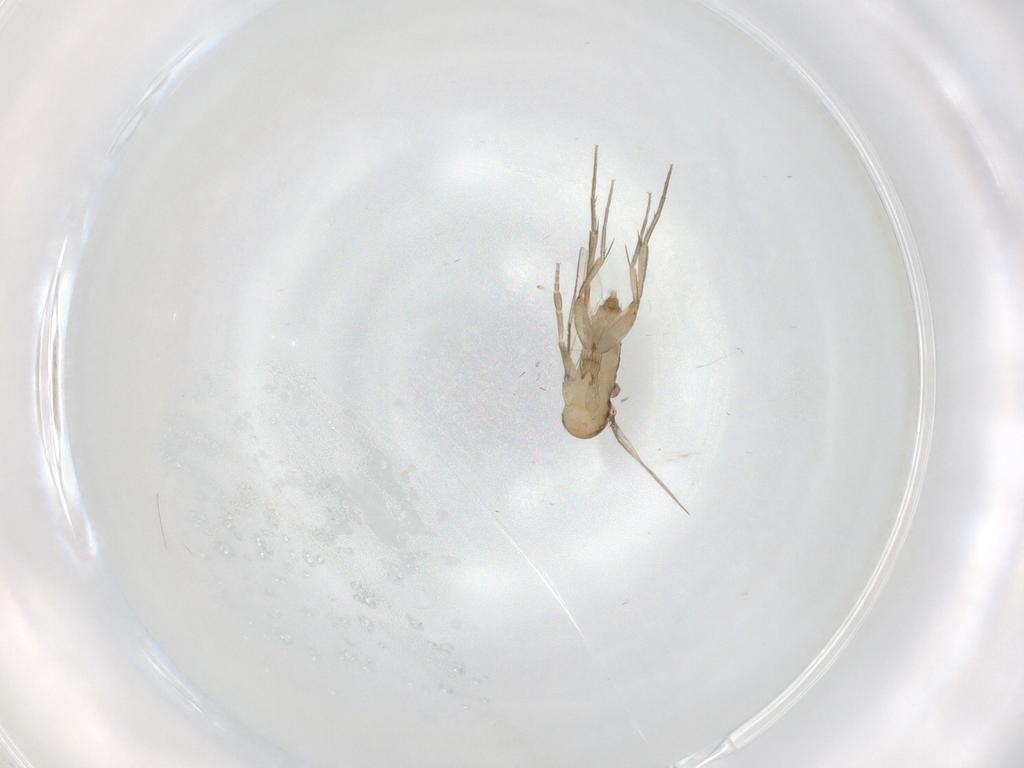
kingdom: Animalia
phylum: Arthropoda
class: Insecta
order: Diptera
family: Phoridae
